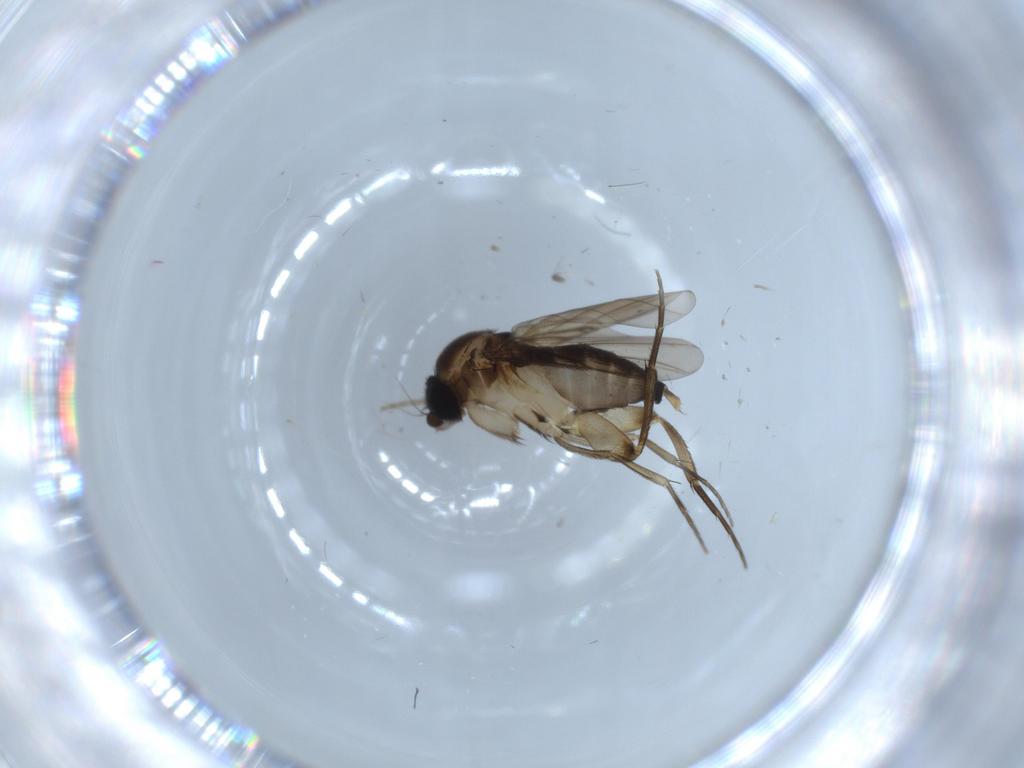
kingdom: Animalia
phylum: Arthropoda
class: Insecta
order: Diptera
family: Phoridae
